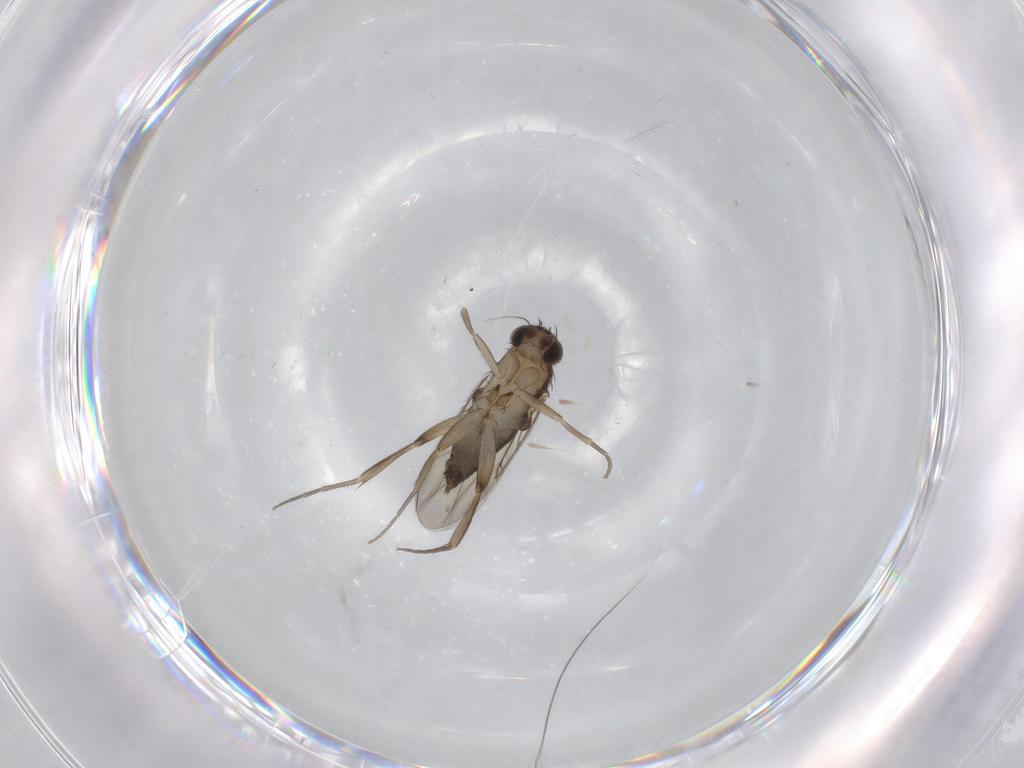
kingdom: Animalia
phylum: Arthropoda
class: Insecta
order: Diptera
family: Phoridae
